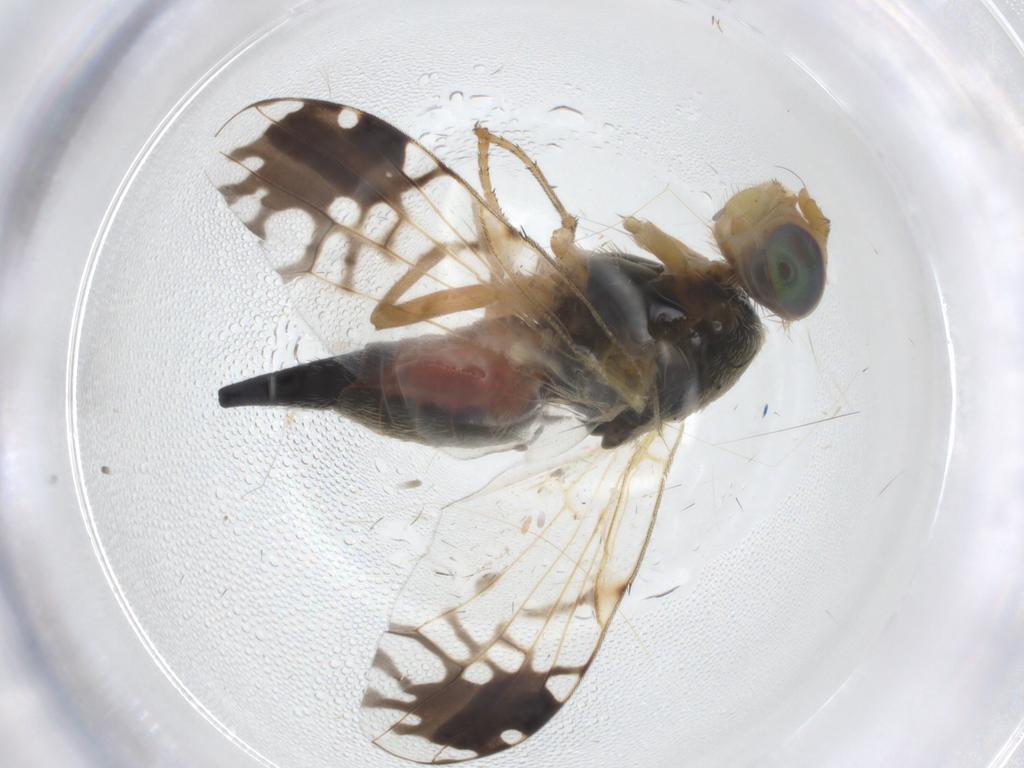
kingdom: Animalia
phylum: Arthropoda
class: Insecta
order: Diptera
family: Tephritidae
